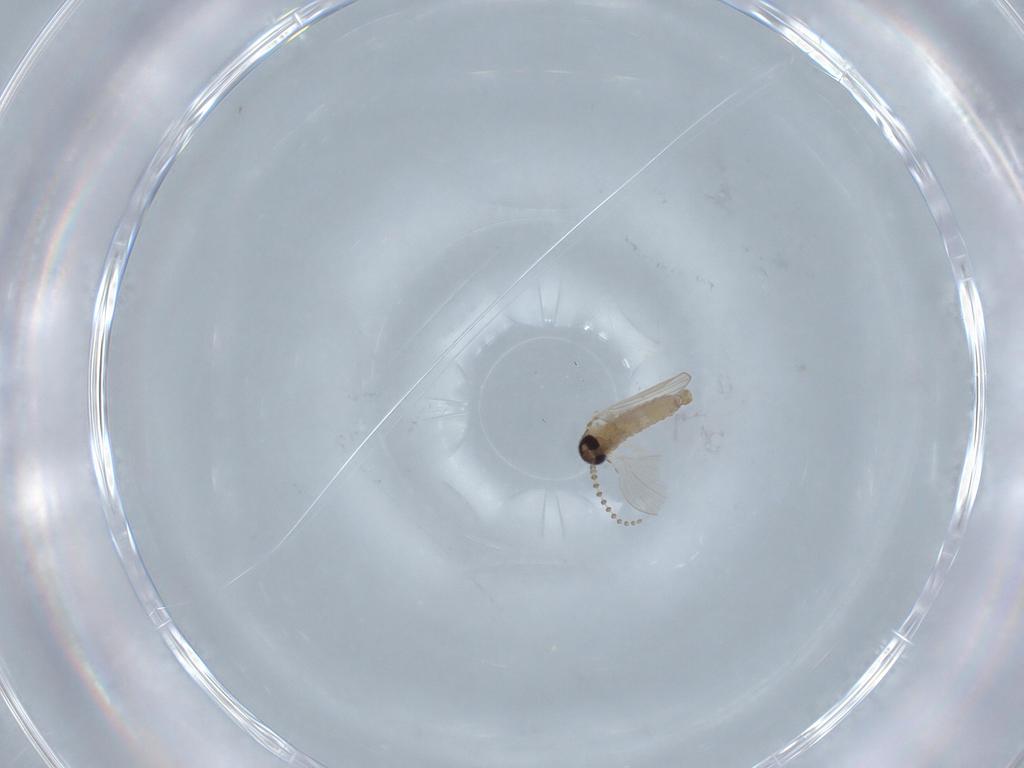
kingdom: Animalia
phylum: Arthropoda
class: Insecta
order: Diptera
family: Psychodidae
